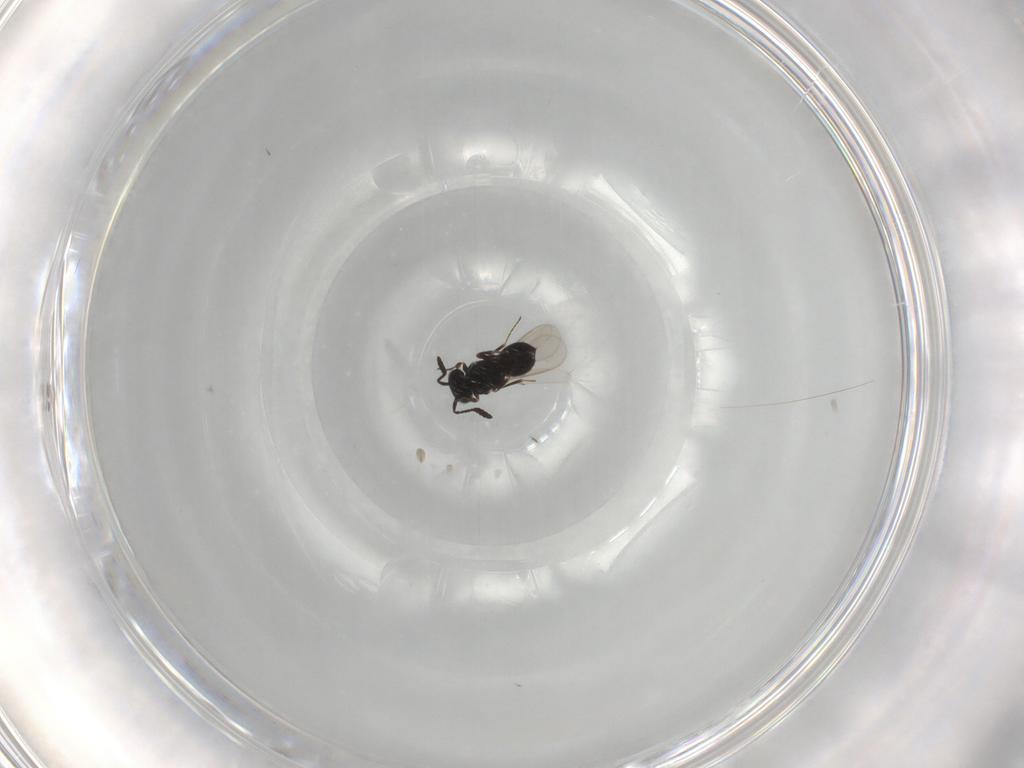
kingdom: Animalia
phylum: Arthropoda
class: Insecta
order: Hymenoptera
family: Scelionidae
